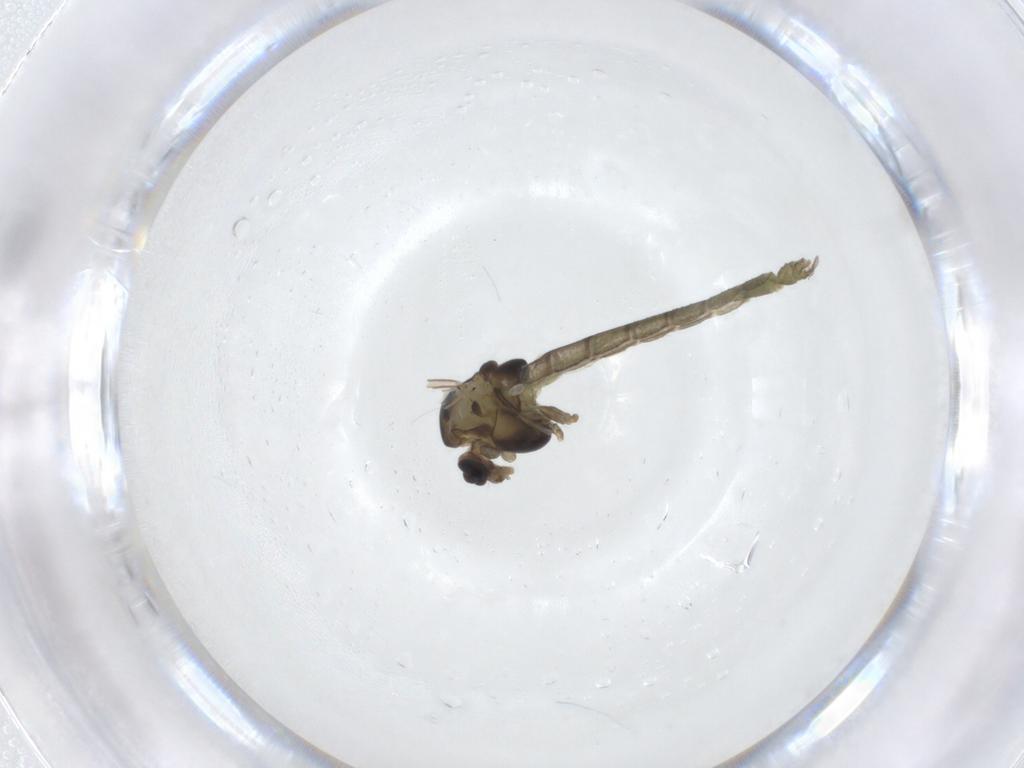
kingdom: Animalia
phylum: Arthropoda
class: Insecta
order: Diptera
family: Chironomidae
